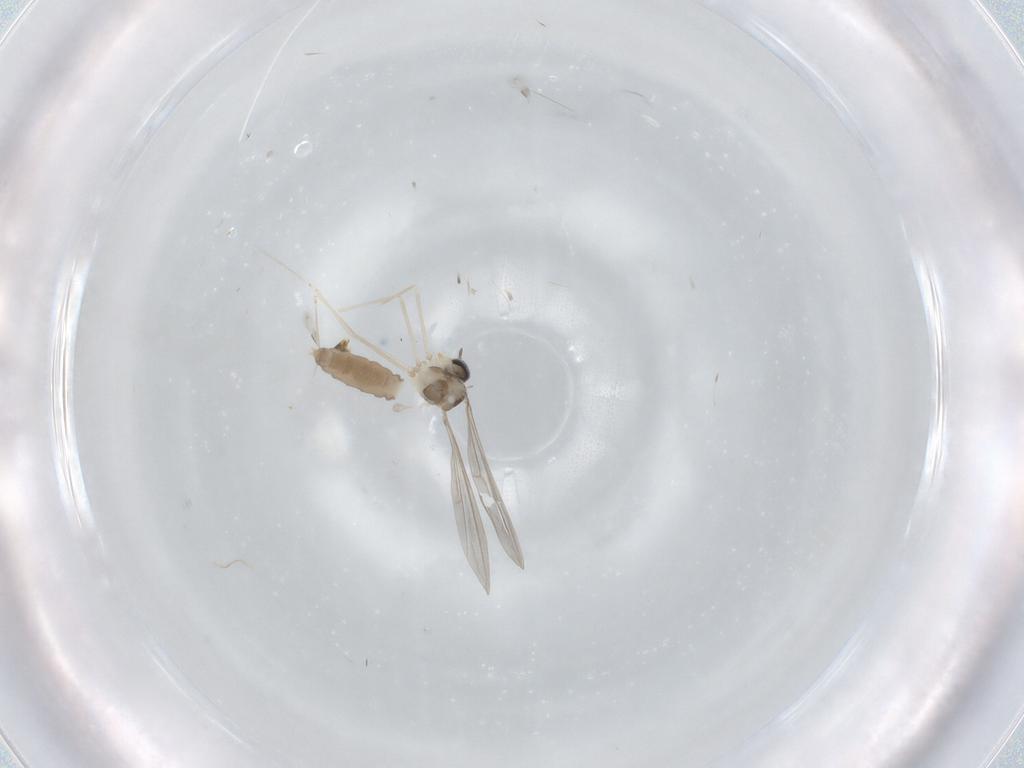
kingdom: Animalia
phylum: Arthropoda
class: Insecta
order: Diptera
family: Cecidomyiidae
